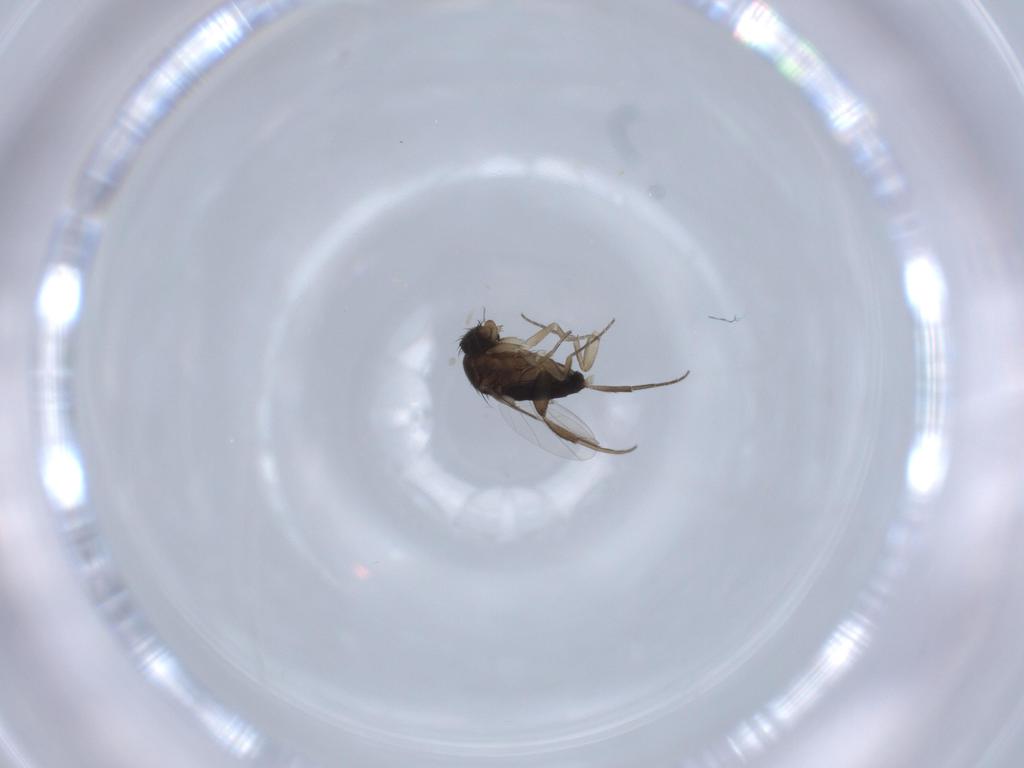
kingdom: Animalia
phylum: Arthropoda
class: Insecta
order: Diptera
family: Phoridae
